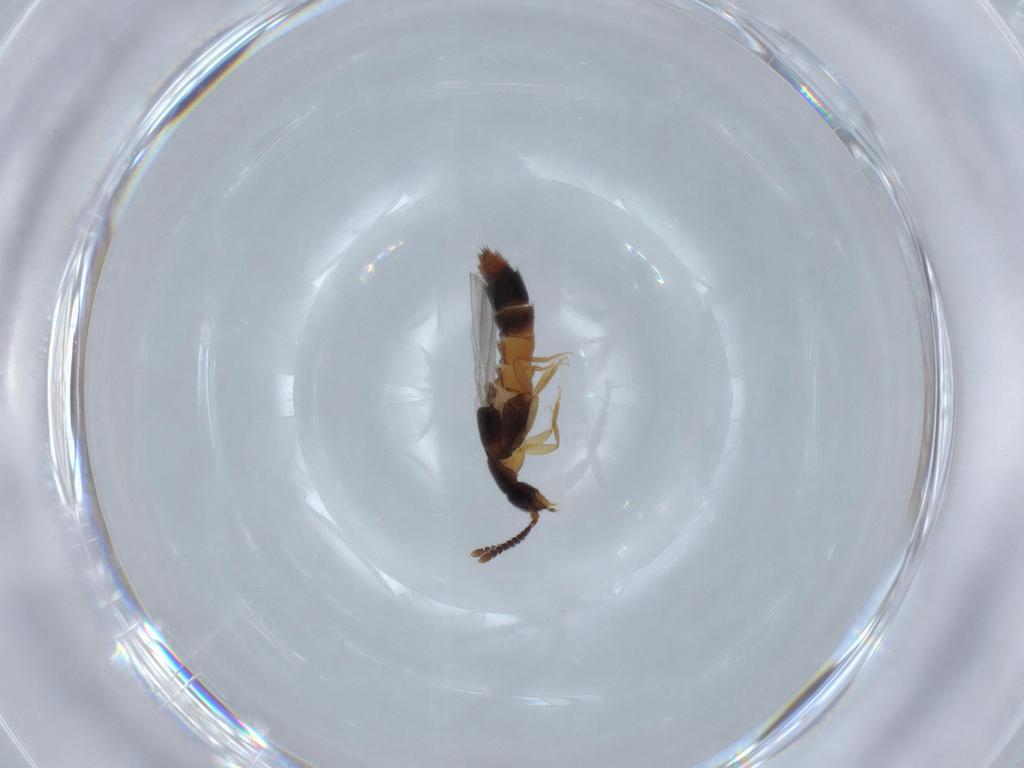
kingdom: Animalia
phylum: Arthropoda
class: Insecta
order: Coleoptera
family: Staphylinidae
